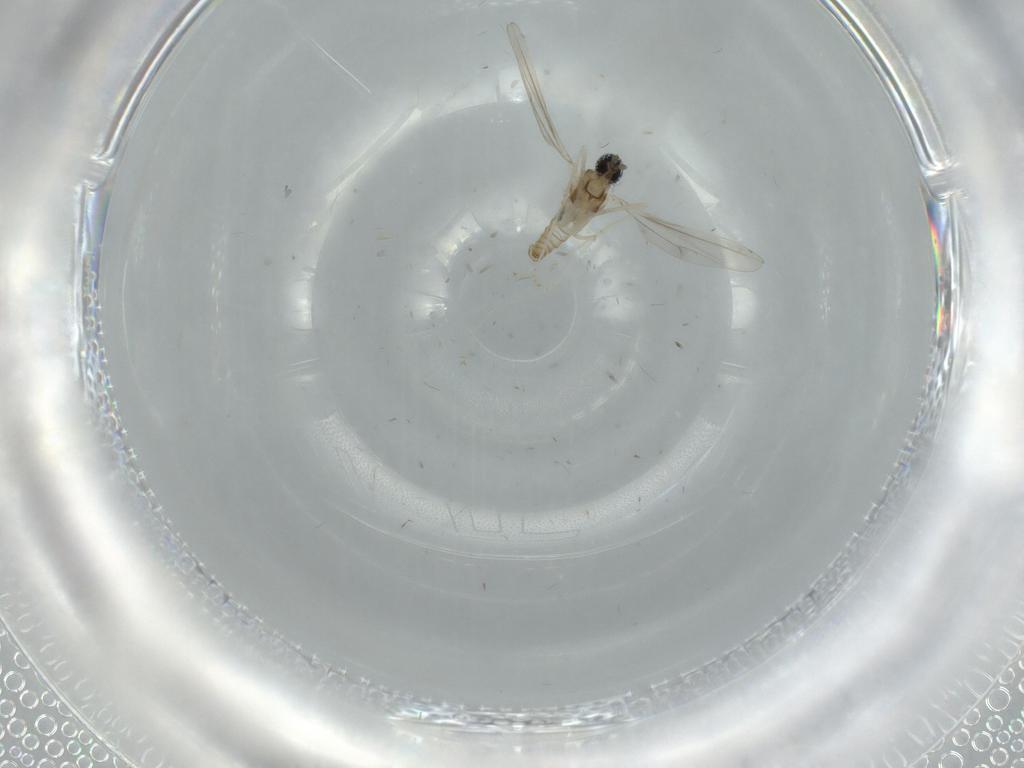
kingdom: Animalia
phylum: Arthropoda
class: Insecta
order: Diptera
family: Sciaridae
